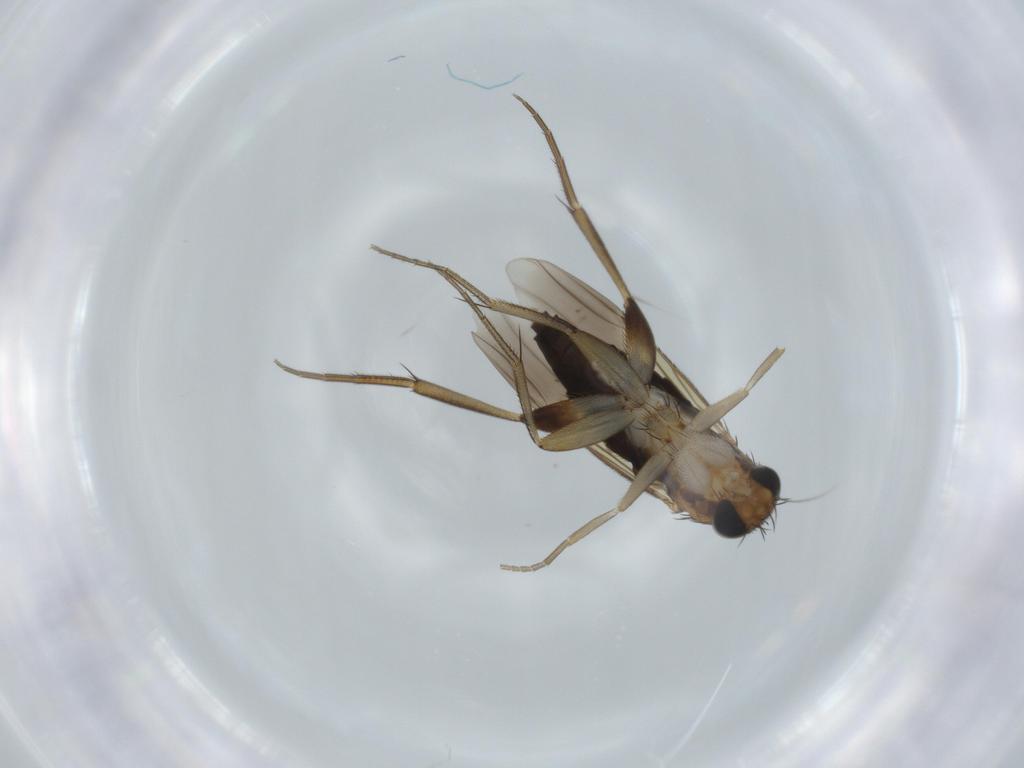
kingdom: Animalia
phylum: Arthropoda
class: Insecta
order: Diptera
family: Phoridae
